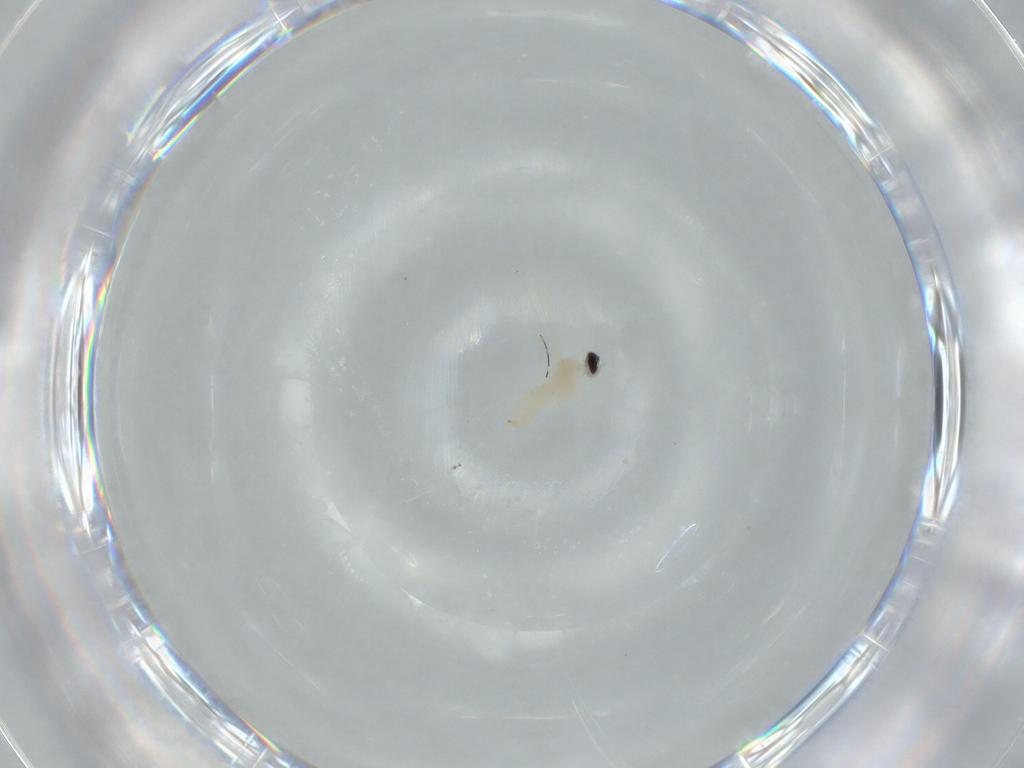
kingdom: Animalia
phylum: Arthropoda
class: Insecta
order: Diptera
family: Cecidomyiidae
